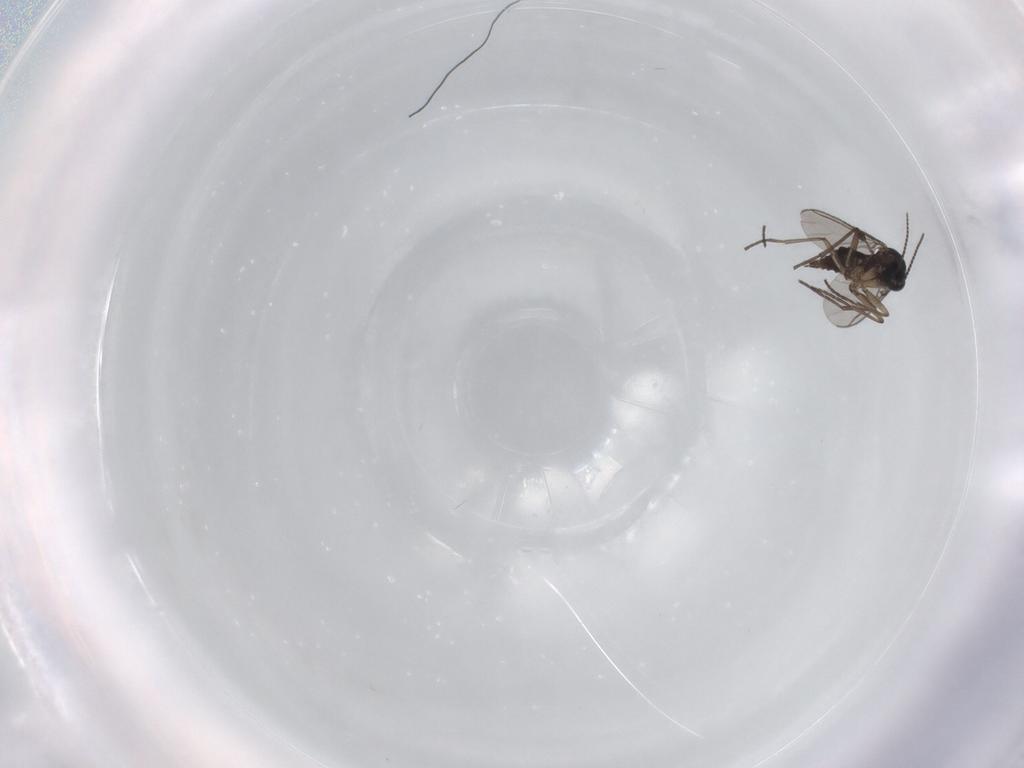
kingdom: Animalia
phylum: Arthropoda
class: Insecta
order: Diptera
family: Sciaridae
